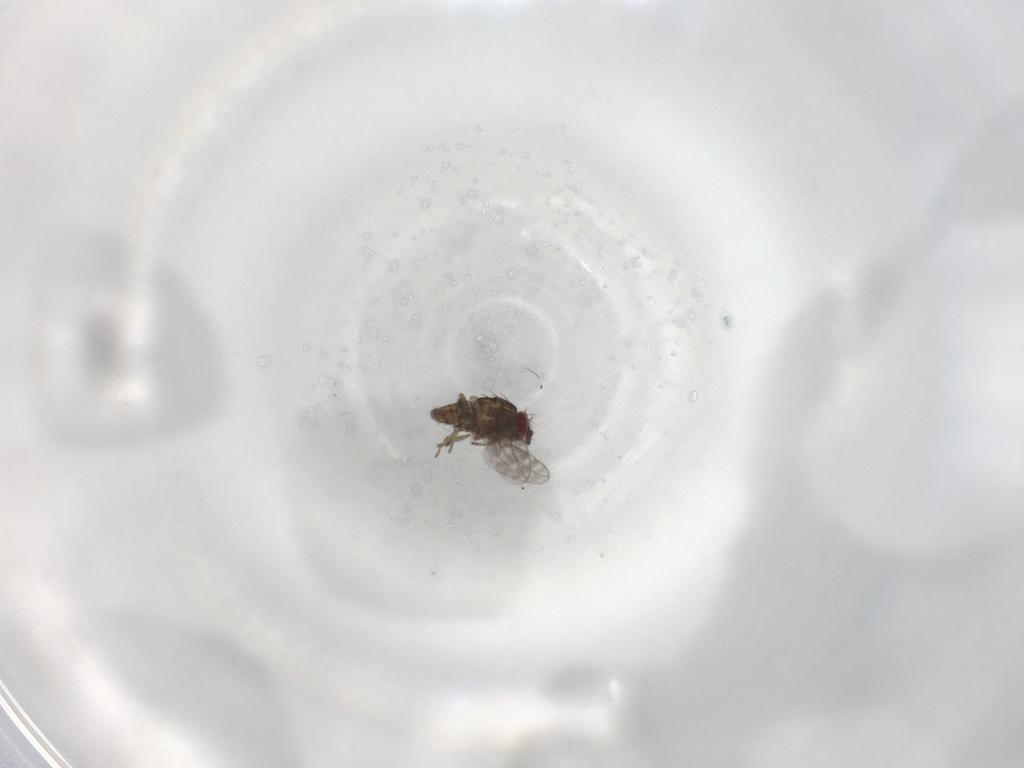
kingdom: Animalia
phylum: Arthropoda
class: Insecta
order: Diptera
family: Sphaeroceridae
